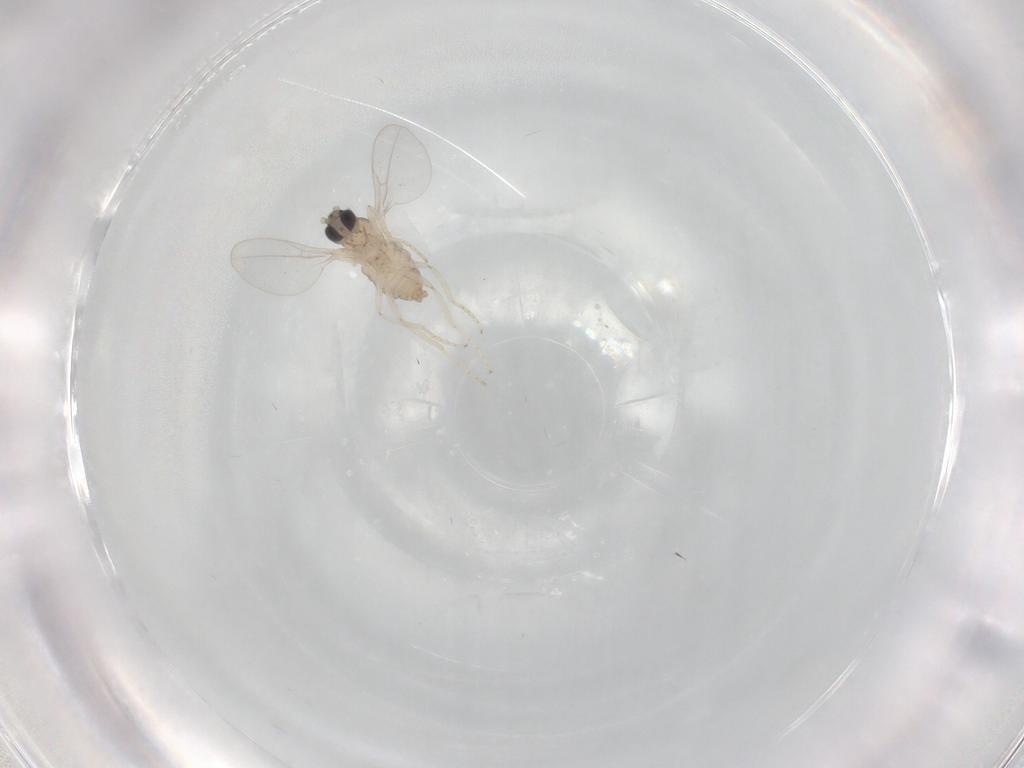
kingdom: Animalia
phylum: Arthropoda
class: Insecta
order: Diptera
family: Cecidomyiidae
